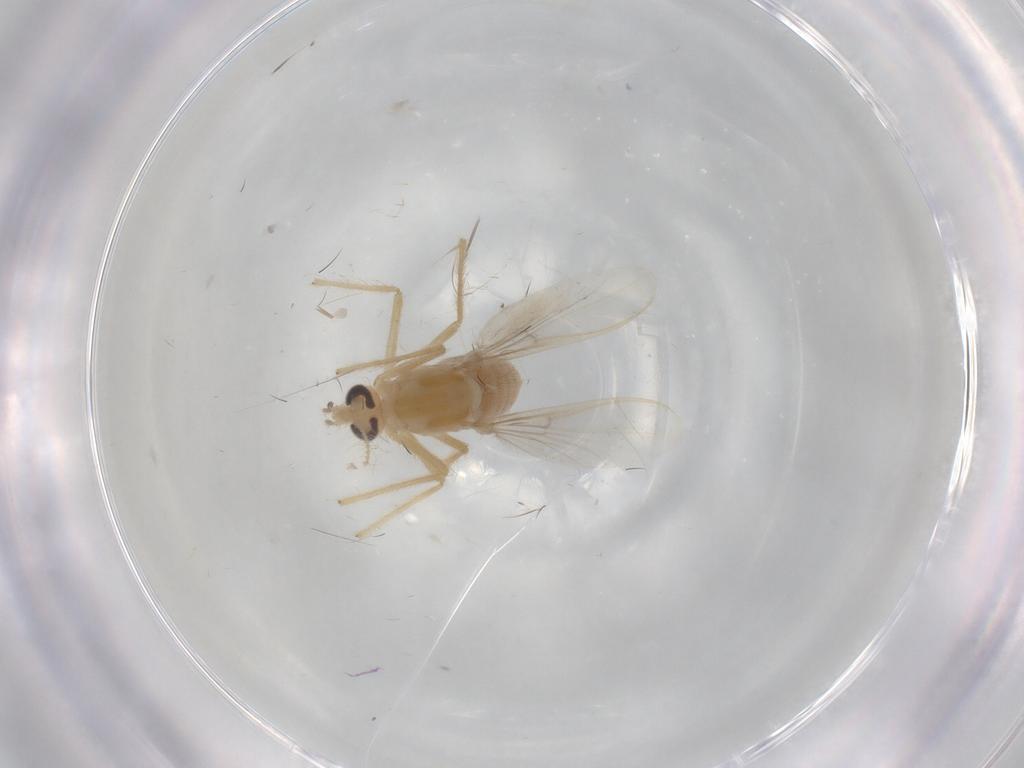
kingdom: Animalia
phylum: Arthropoda
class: Insecta
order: Diptera
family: Chironomidae
